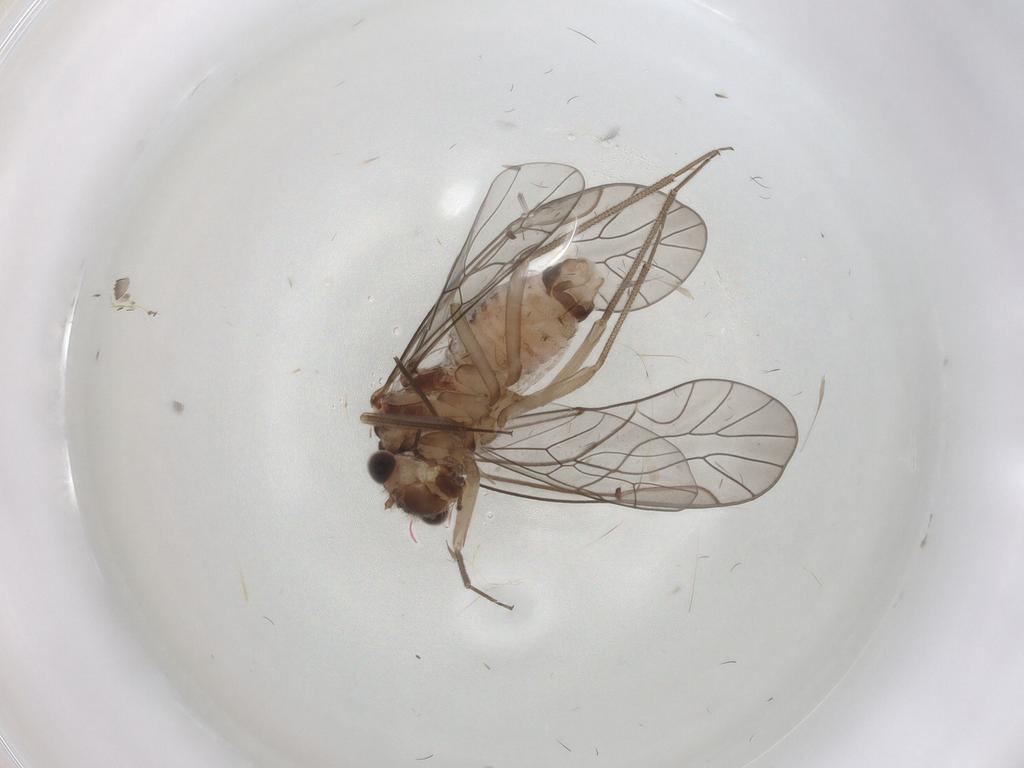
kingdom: Animalia
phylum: Arthropoda
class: Insecta
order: Psocodea
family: Lachesillidae
